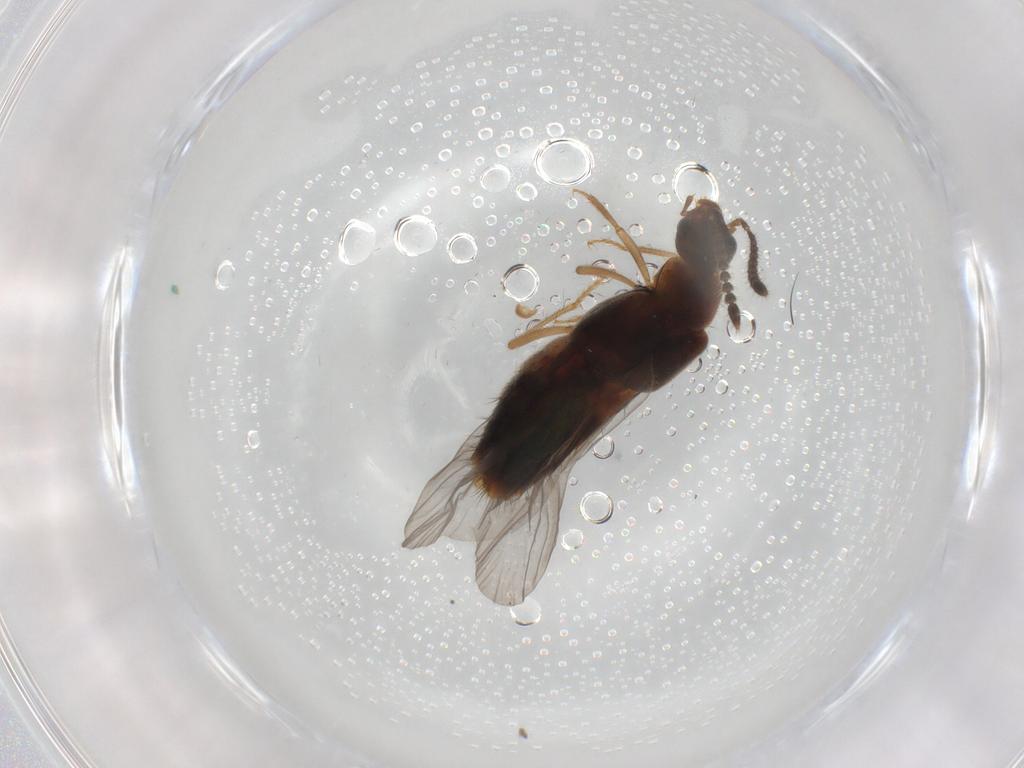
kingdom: Animalia
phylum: Arthropoda
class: Insecta
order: Coleoptera
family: Staphylinidae
